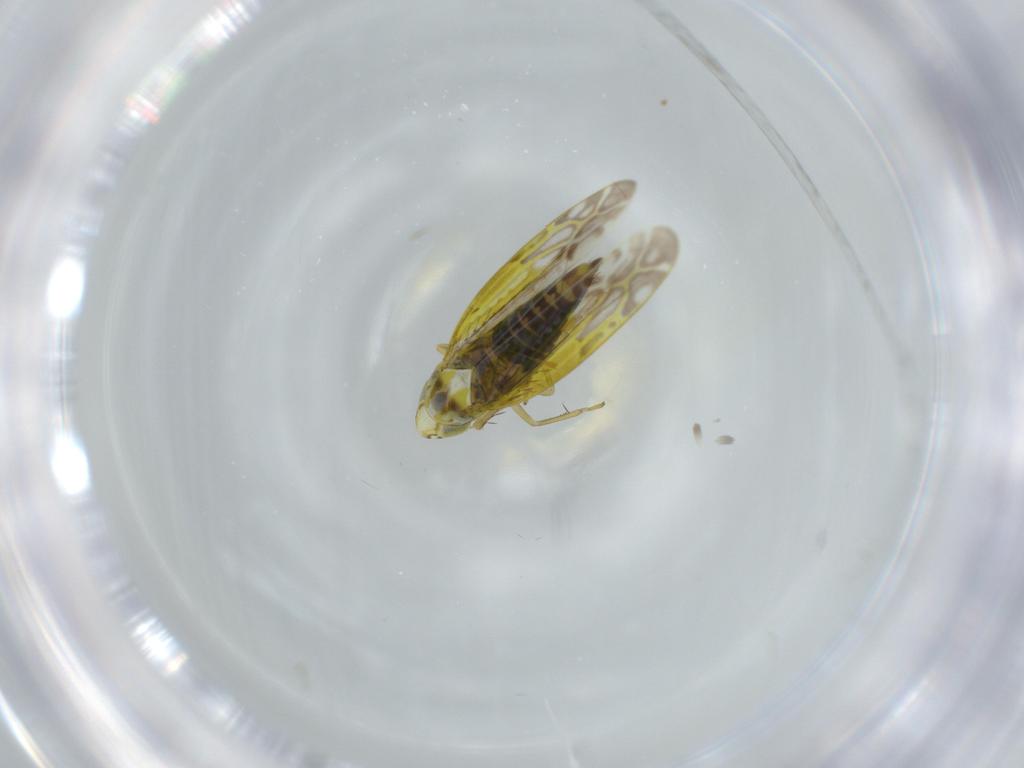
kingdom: Animalia
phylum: Arthropoda
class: Insecta
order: Hemiptera
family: Cicadellidae
